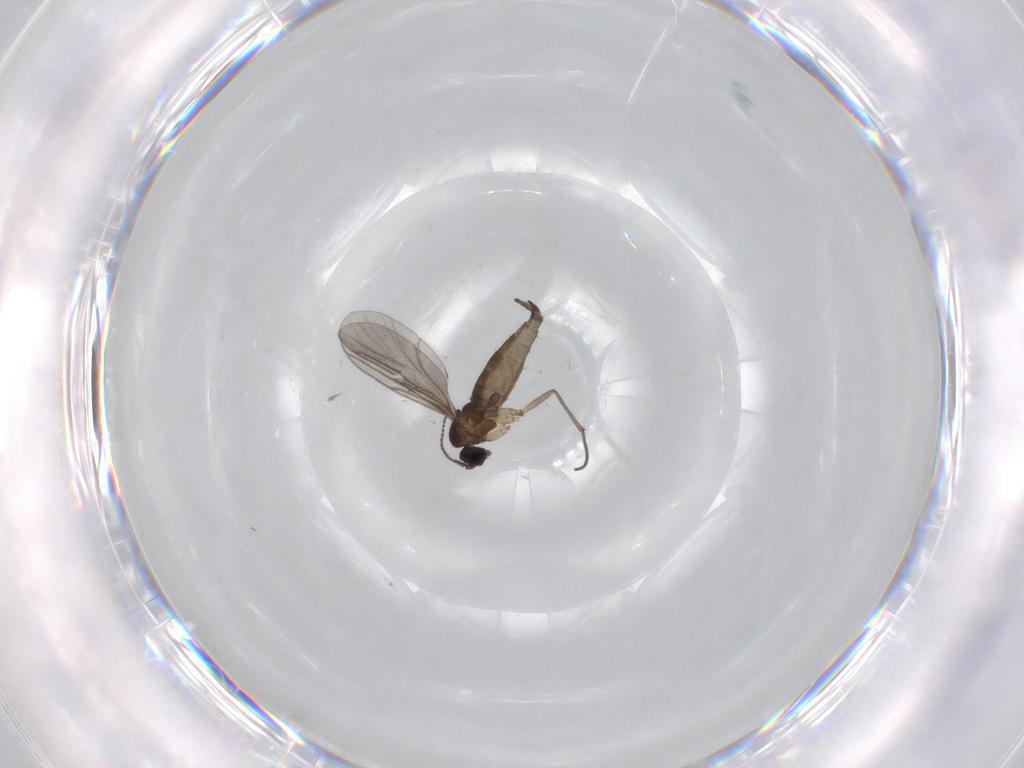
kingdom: Animalia
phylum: Arthropoda
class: Insecta
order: Diptera
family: Sciaridae
